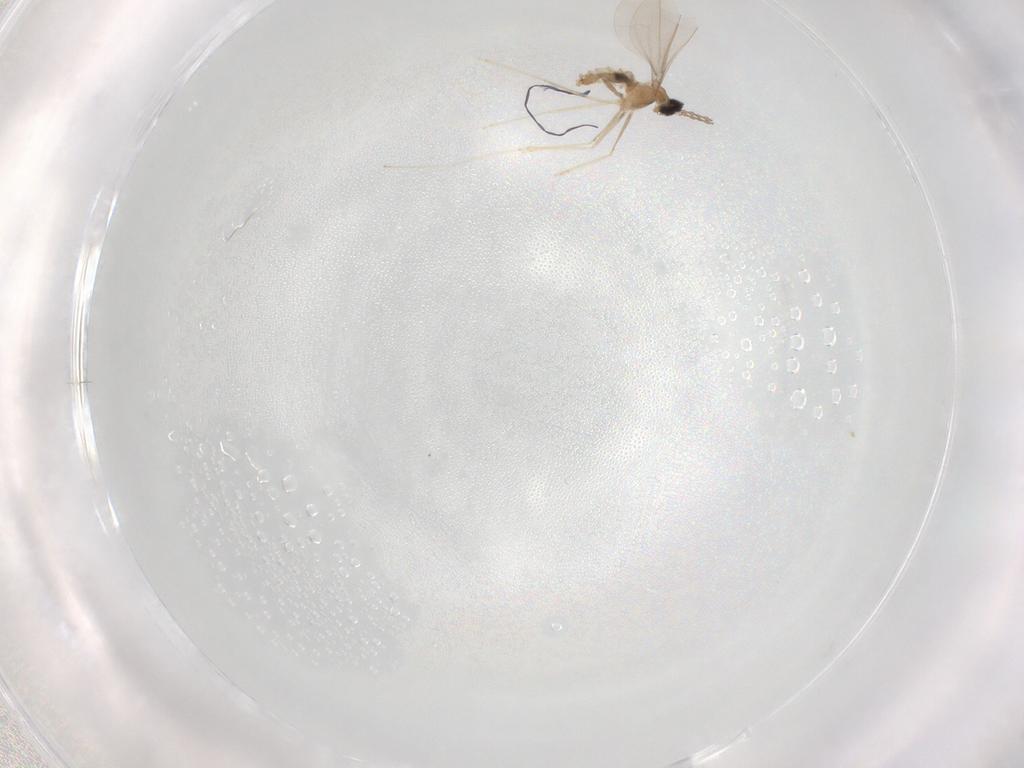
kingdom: Animalia
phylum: Arthropoda
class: Insecta
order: Diptera
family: Cecidomyiidae
